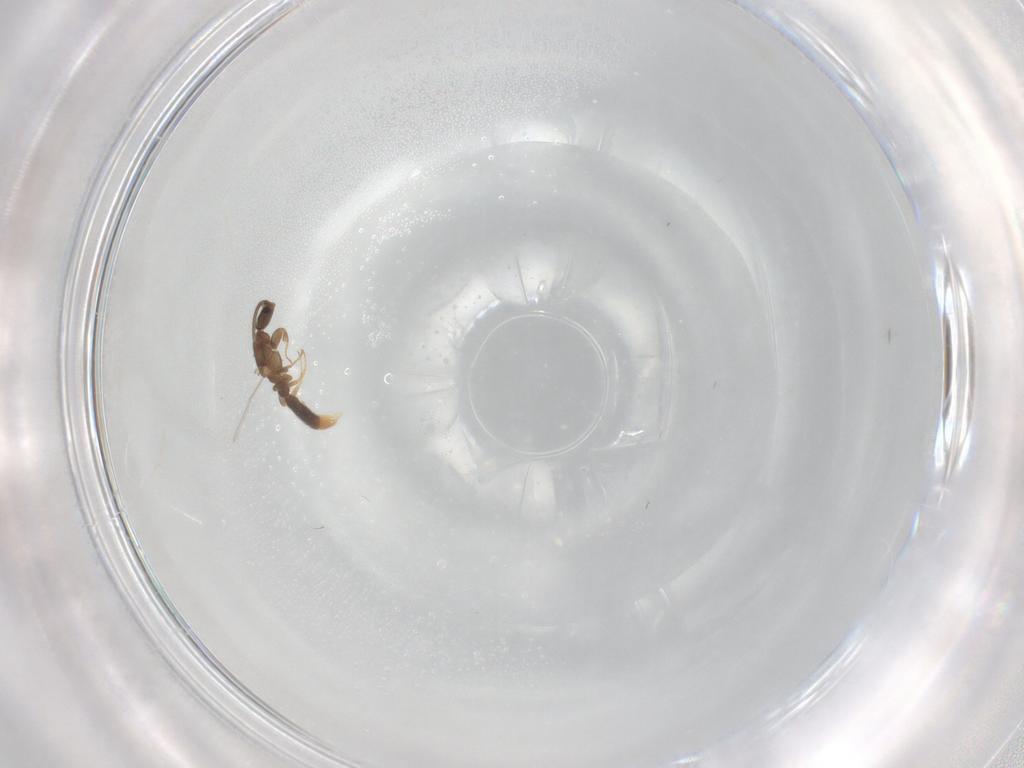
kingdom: Animalia
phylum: Arthropoda
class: Insecta
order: Hymenoptera
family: Formicidae
